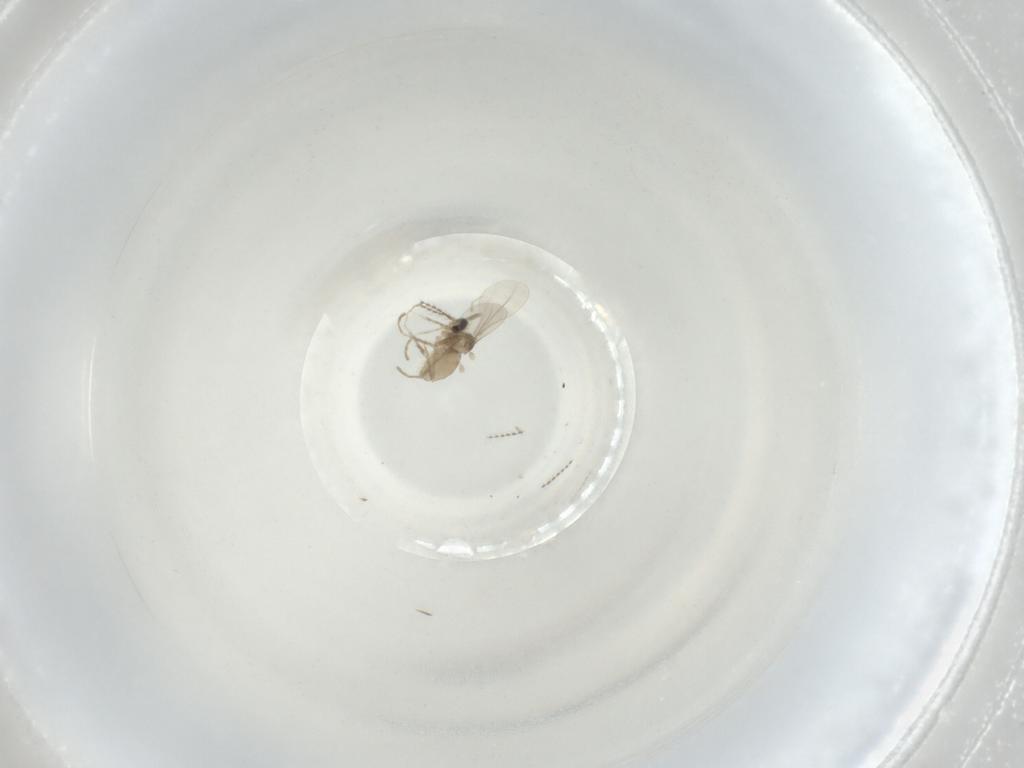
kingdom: Animalia
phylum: Arthropoda
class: Insecta
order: Diptera
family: Cecidomyiidae
